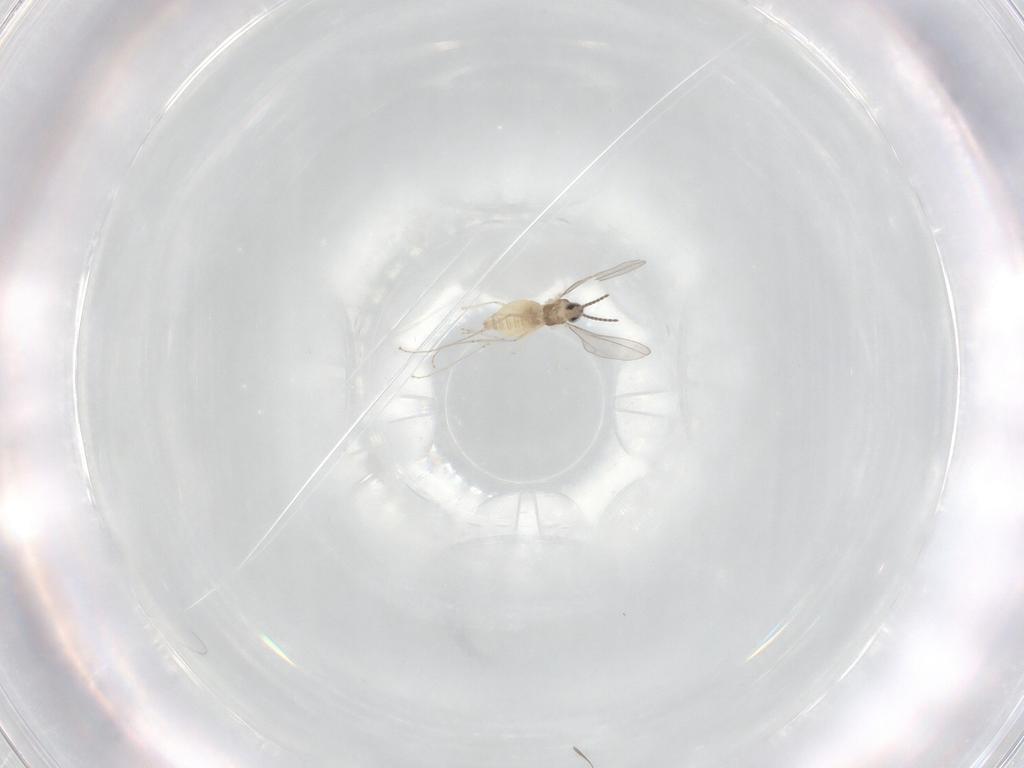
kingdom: Animalia
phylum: Arthropoda
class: Insecta
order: Diptera
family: Cecidomyiidae
